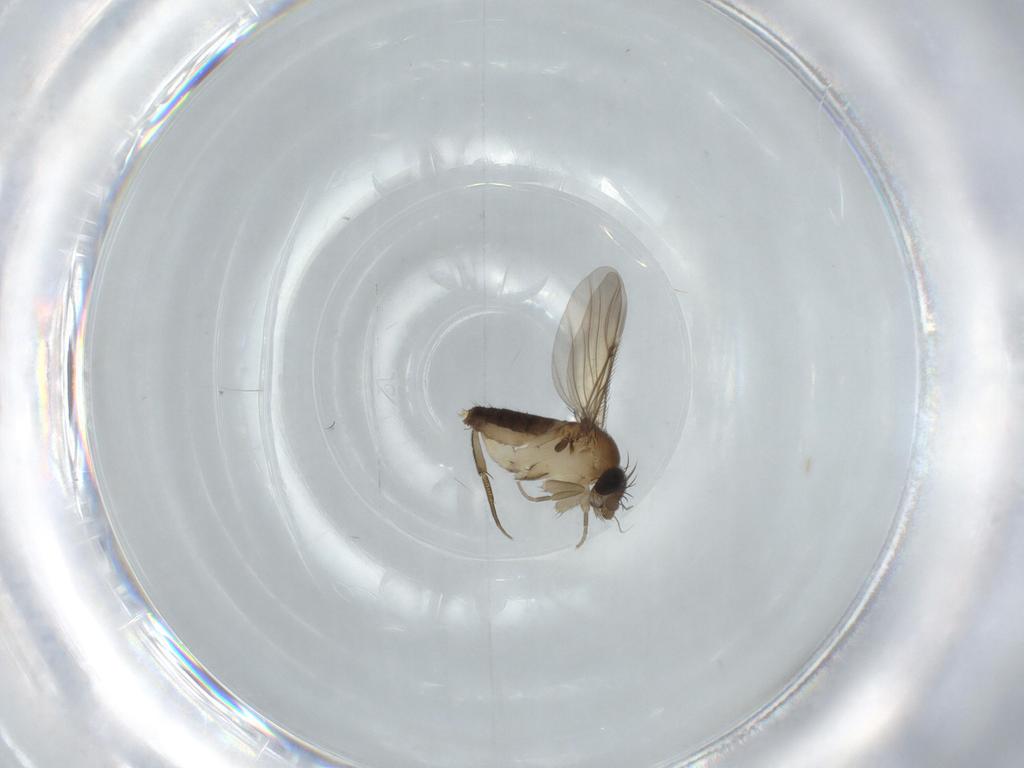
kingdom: Animalia
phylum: Arthropoda
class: Insecta
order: Diptera
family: Phoridae
